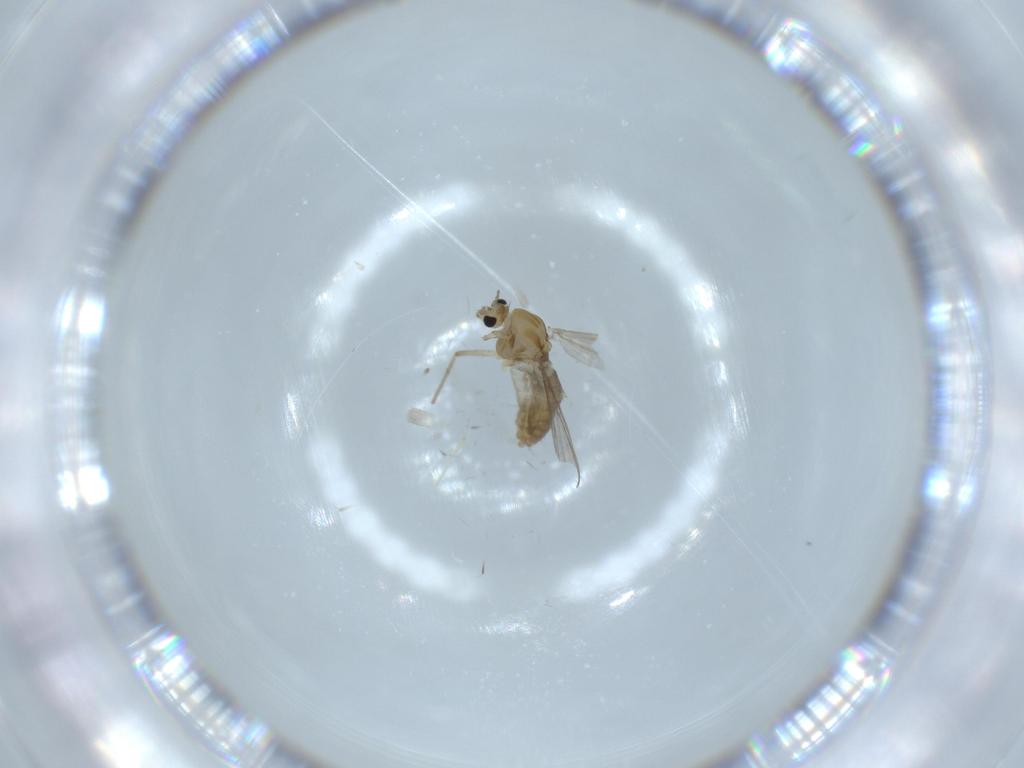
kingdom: Animalia
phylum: Arthropoda
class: Insecta
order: Diptera
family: Chironomidae
